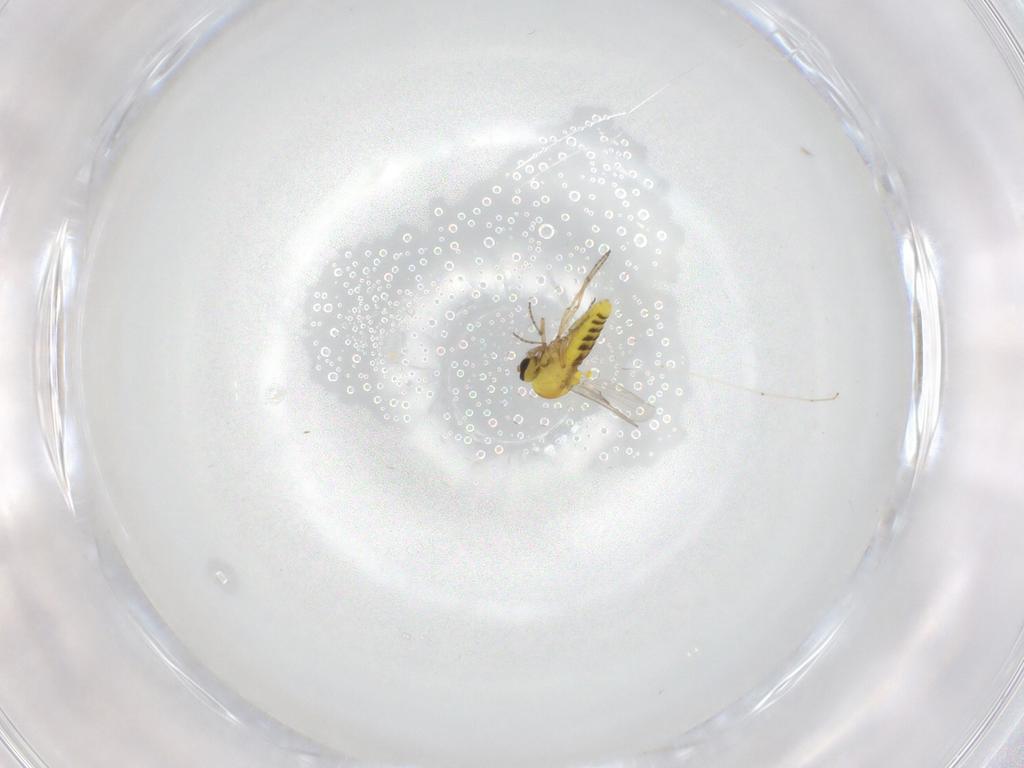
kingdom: Animalia
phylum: Arthropoda
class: Insecta
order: Diptera
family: Ceratopogonidae
